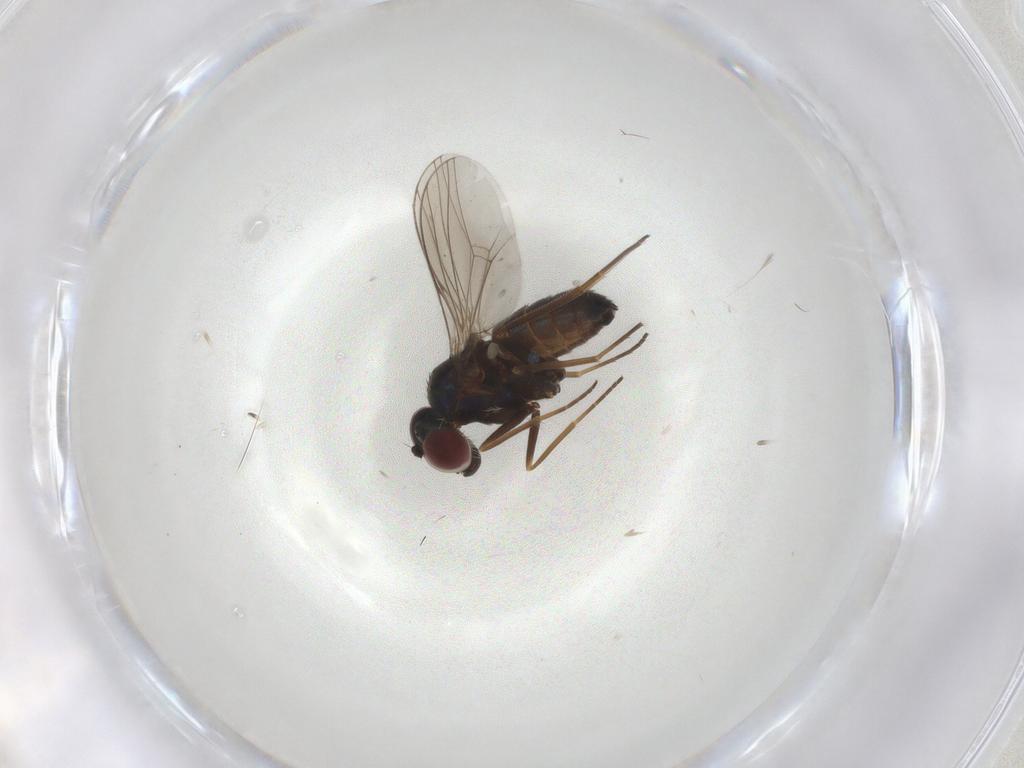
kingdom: Animalia
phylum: Arthropoda
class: Insecta
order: Diptera
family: Dolichopodidae
